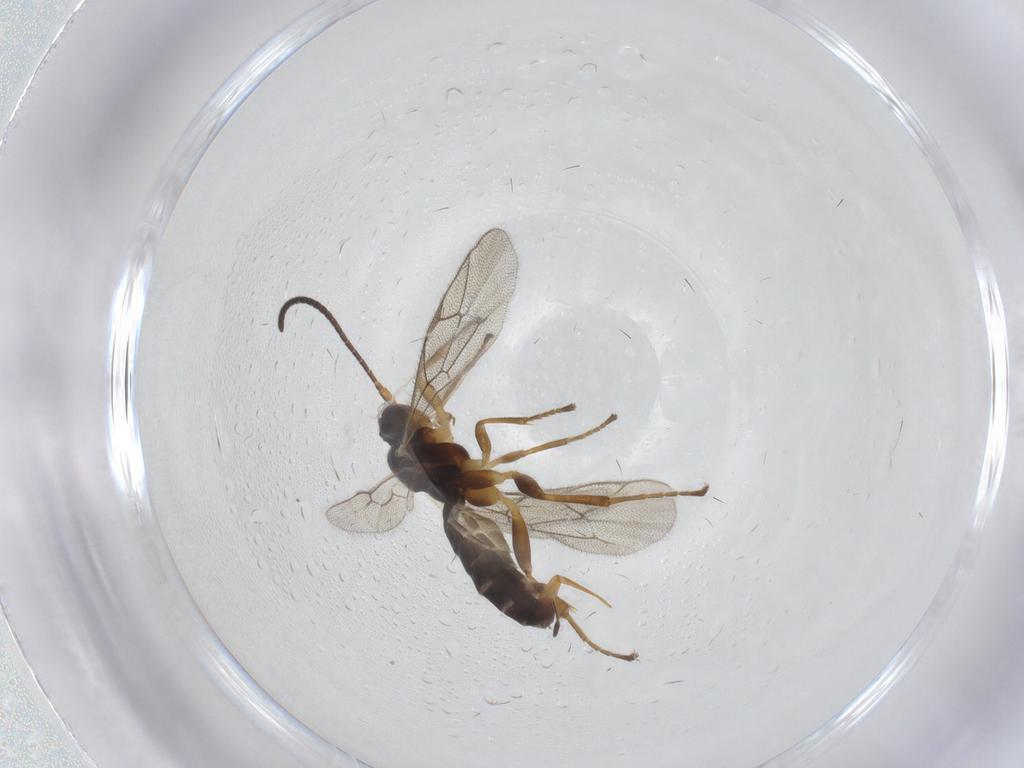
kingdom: Animalia
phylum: Arthropoda
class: Insecta
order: Hymenoptera
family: Ichneumonidae
